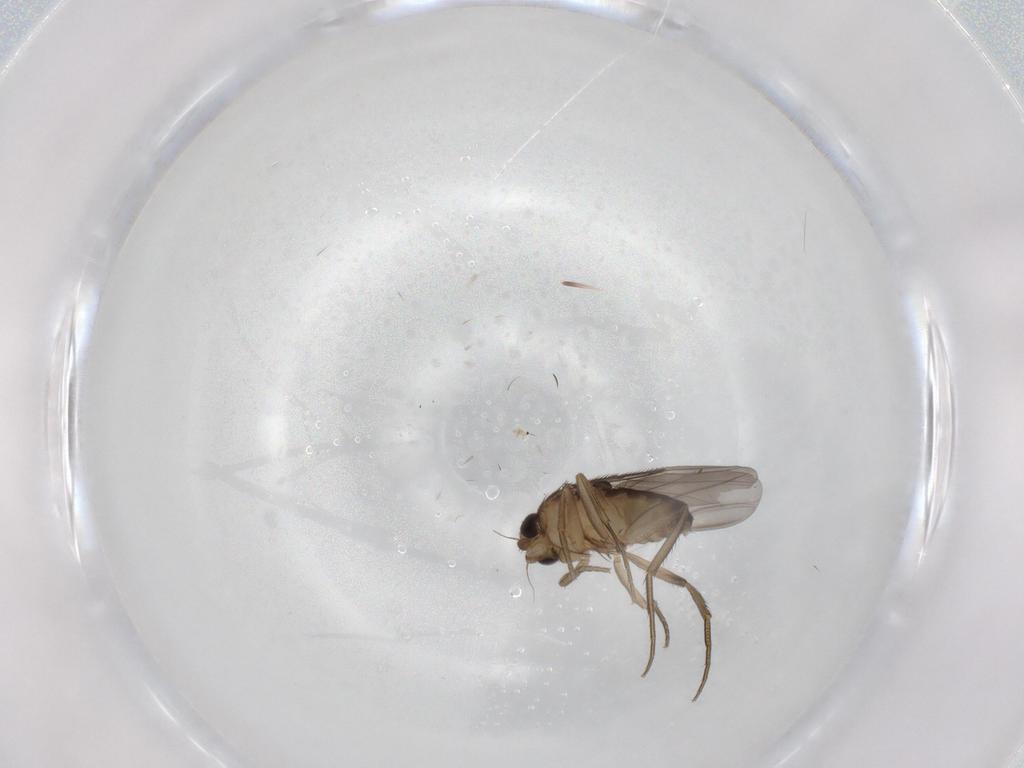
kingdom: Animalia
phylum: Arthropoda
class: Insecta
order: Diptera
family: Phoridae
